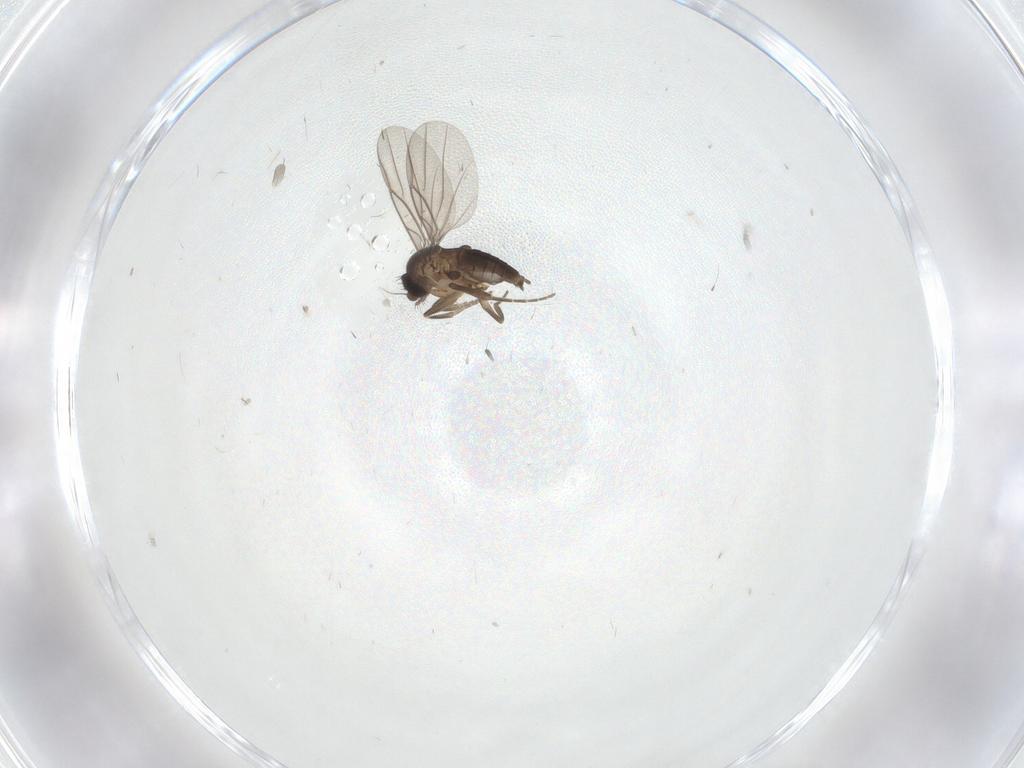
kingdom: Animalia
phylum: Arthropoda
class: Insecta
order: Diptera
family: Phoridae
